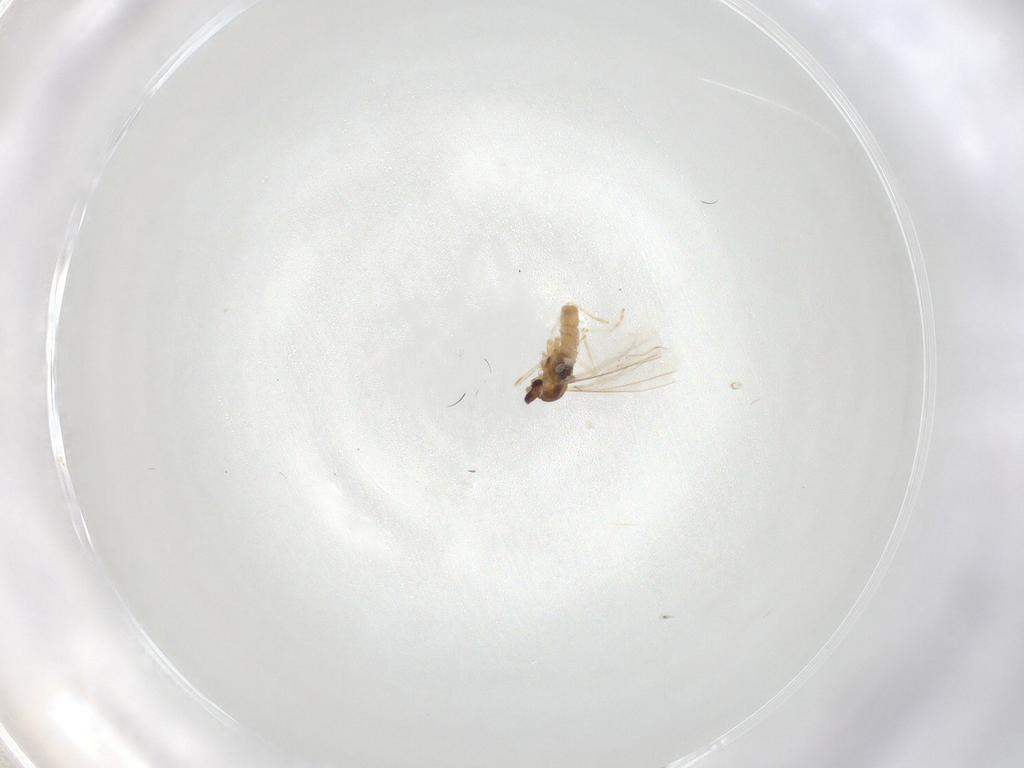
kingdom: Animalia
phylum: Arthropoda
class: Insecta
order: Diptera
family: Cecidomyiidae
